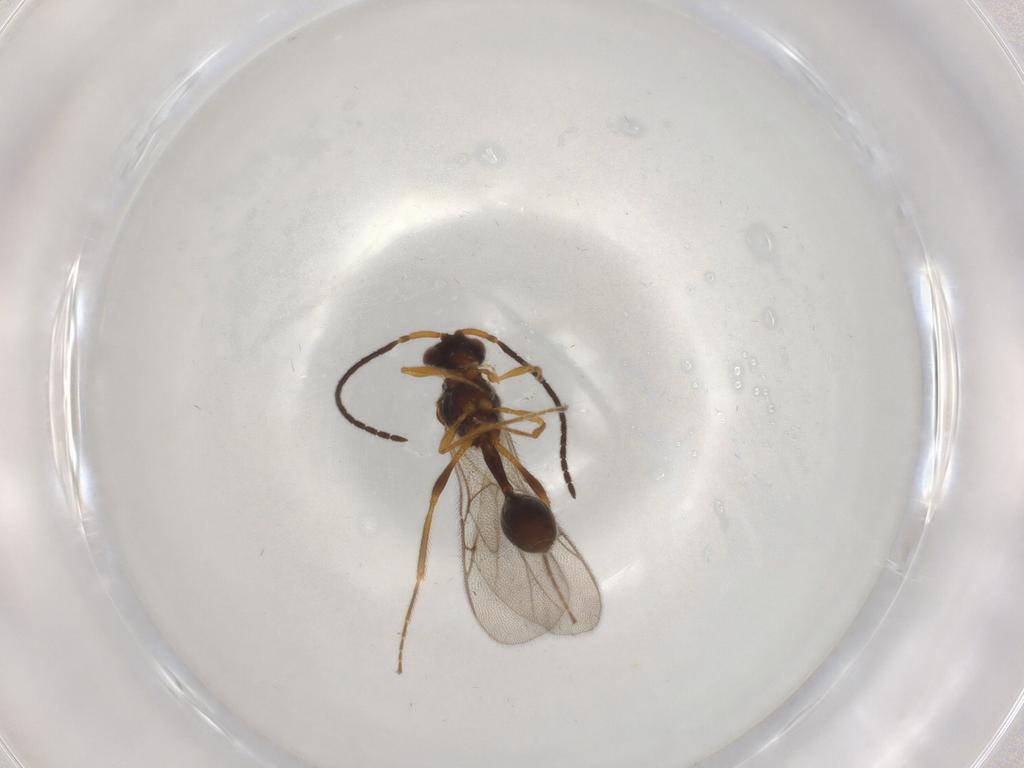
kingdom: Animalia
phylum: Arthropoda
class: Insecta
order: Hymenoptera
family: Diapriidae
